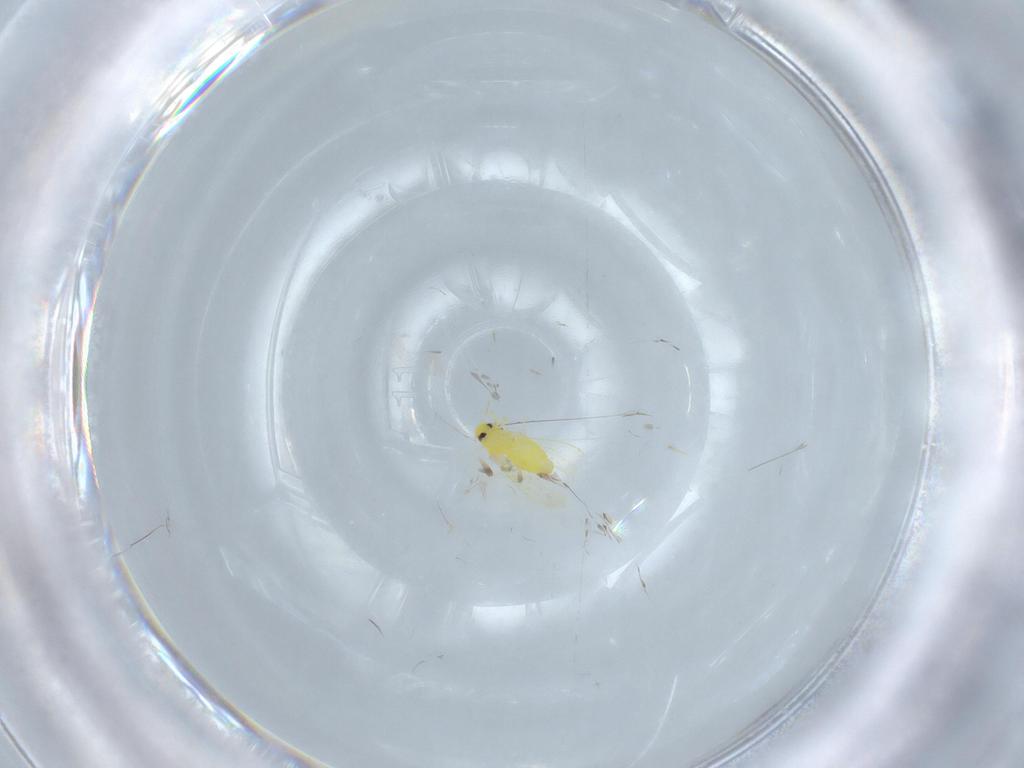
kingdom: Animalia
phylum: Arthropoda
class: Insecta
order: Hemiptera
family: Aleyrodidae
